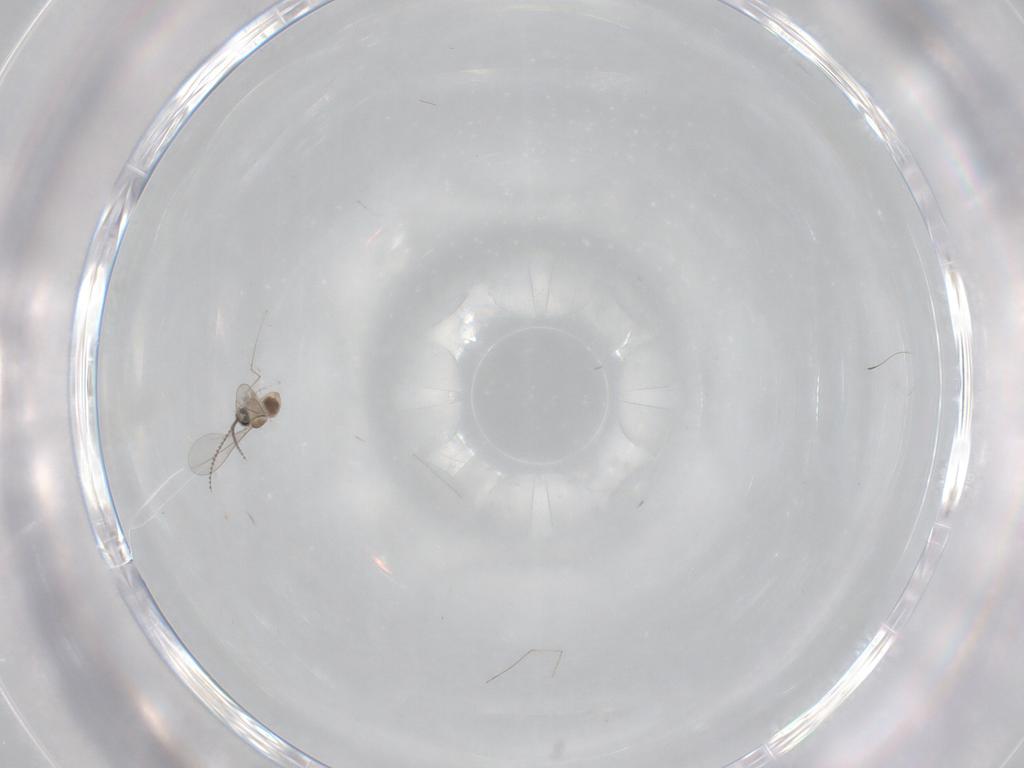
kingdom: Animalia
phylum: Arthropoda
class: Insecta
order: Diptera
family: Cecidomyiidae
